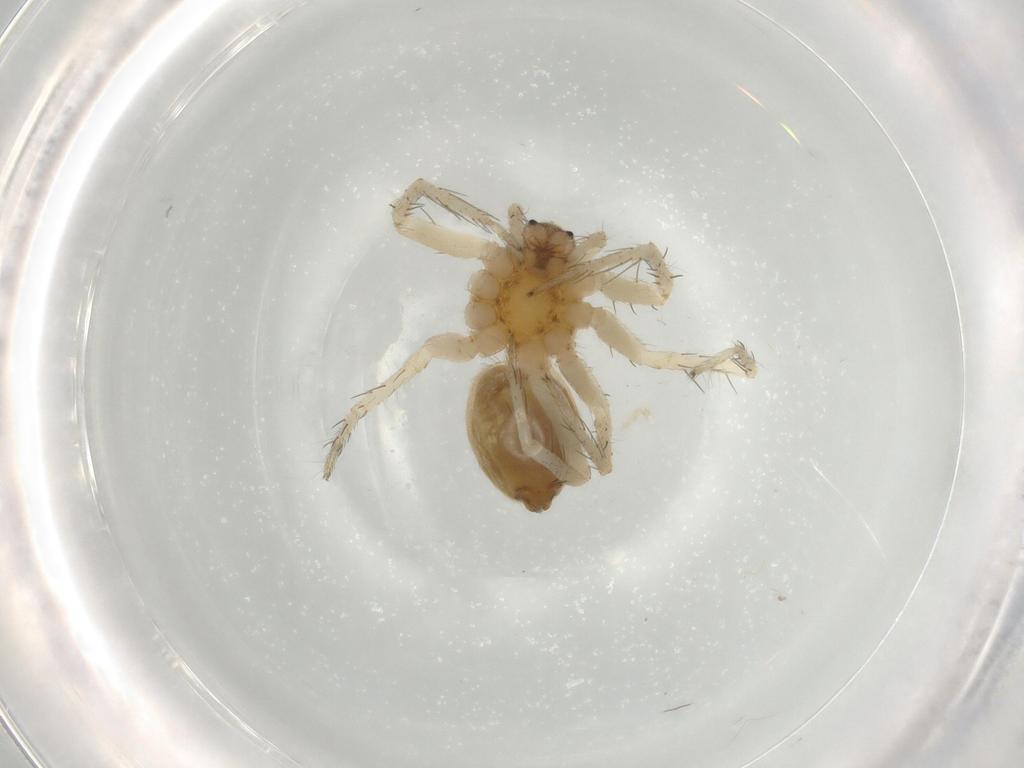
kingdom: Animalia
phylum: Arthropoda
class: Arachnida
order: Araneae
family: Pisauridae
